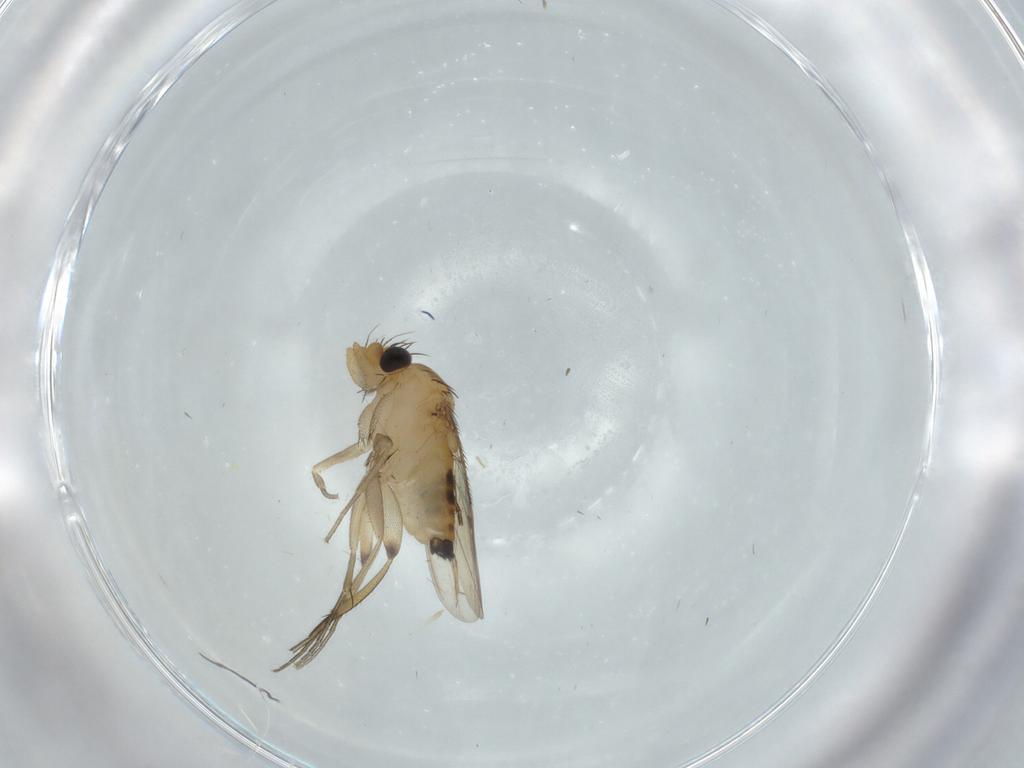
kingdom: Animalia
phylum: Arthropoda
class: Insecta
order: Diptera
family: Phoridae
